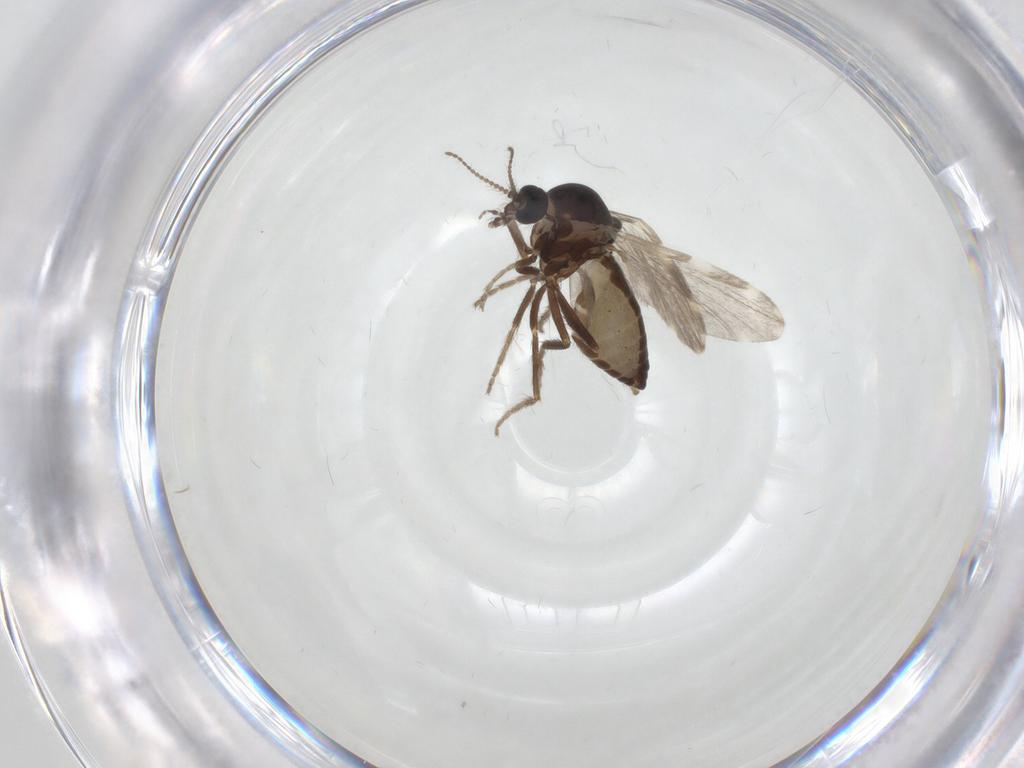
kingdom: Animalia
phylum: Arthropoda
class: Insecta
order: Diptera
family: Ceratopogonidae
